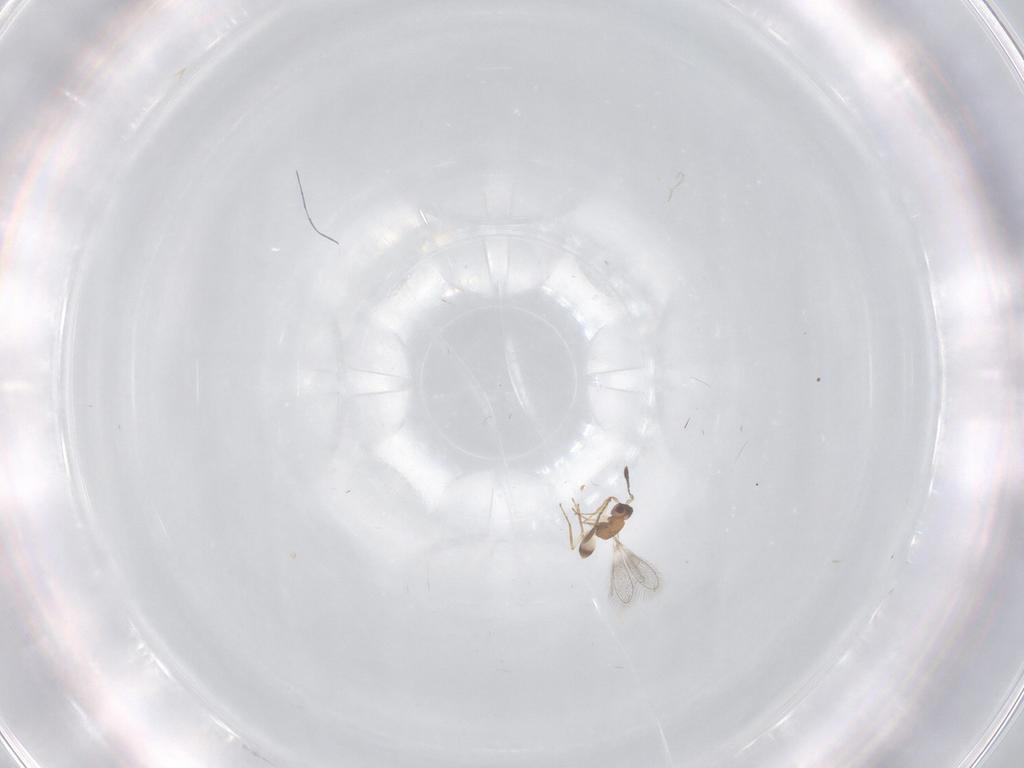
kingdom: Animalia
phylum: Arthropoda
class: Insecta
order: Hymenoptera
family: Mymaridae
